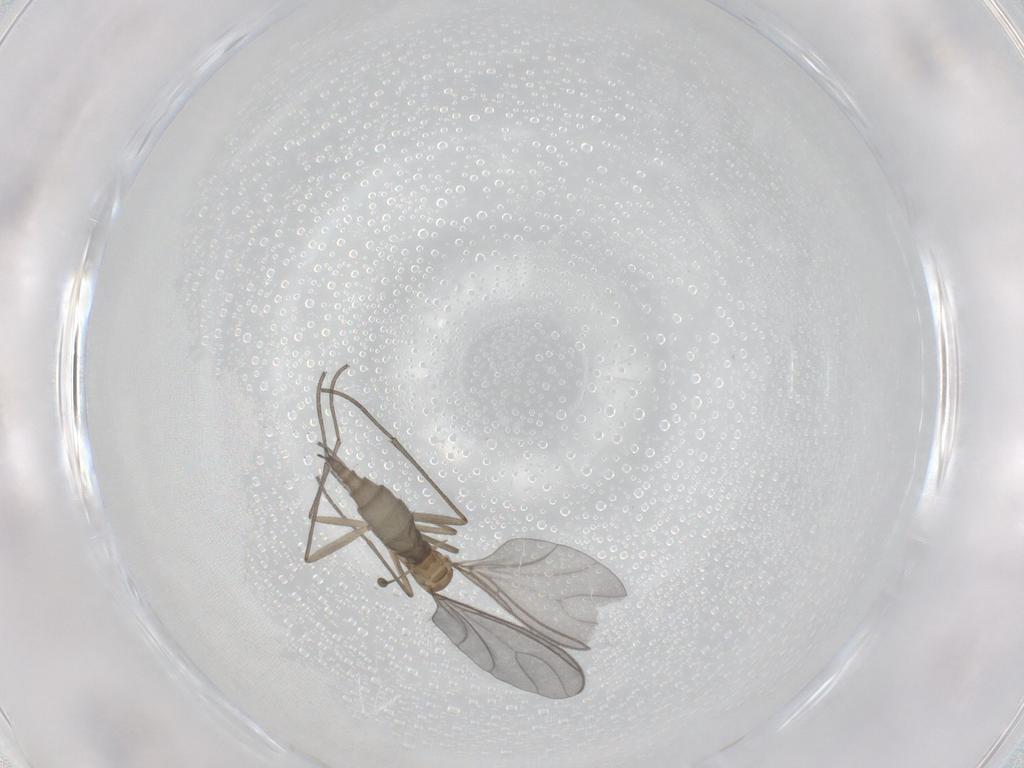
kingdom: Animalia
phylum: Arthropoda
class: Insecta
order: Diptera
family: Sciaridae
